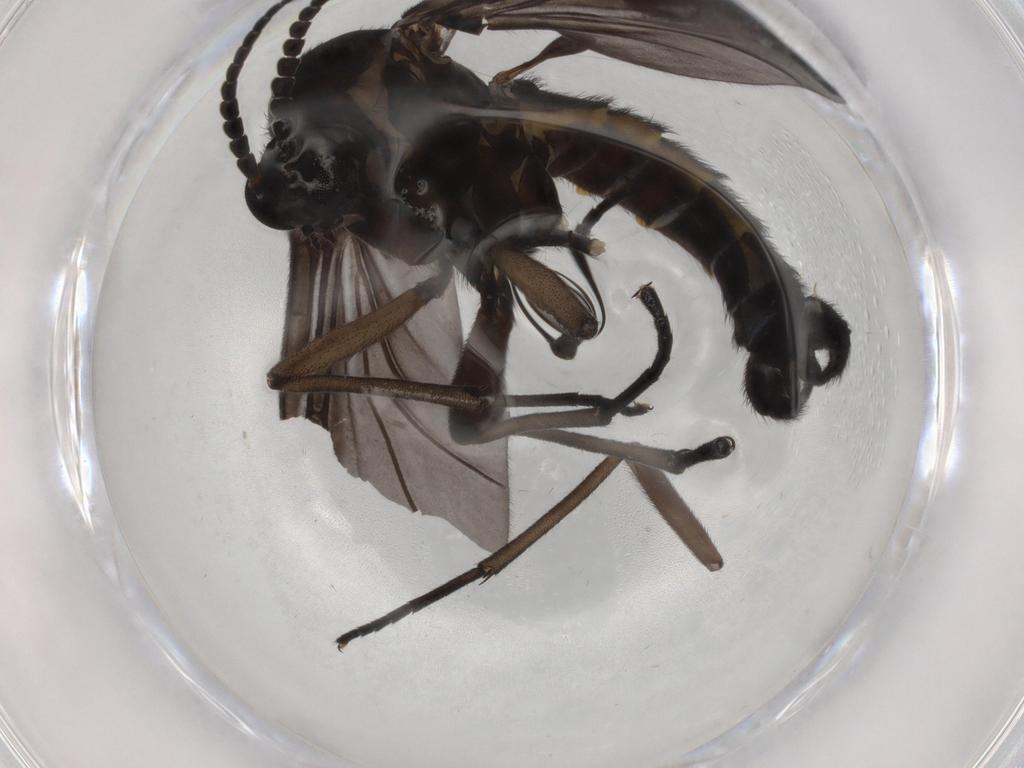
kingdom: Animalia
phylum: Arthropoda
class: Insecta
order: Diptera
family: Sciaridae
